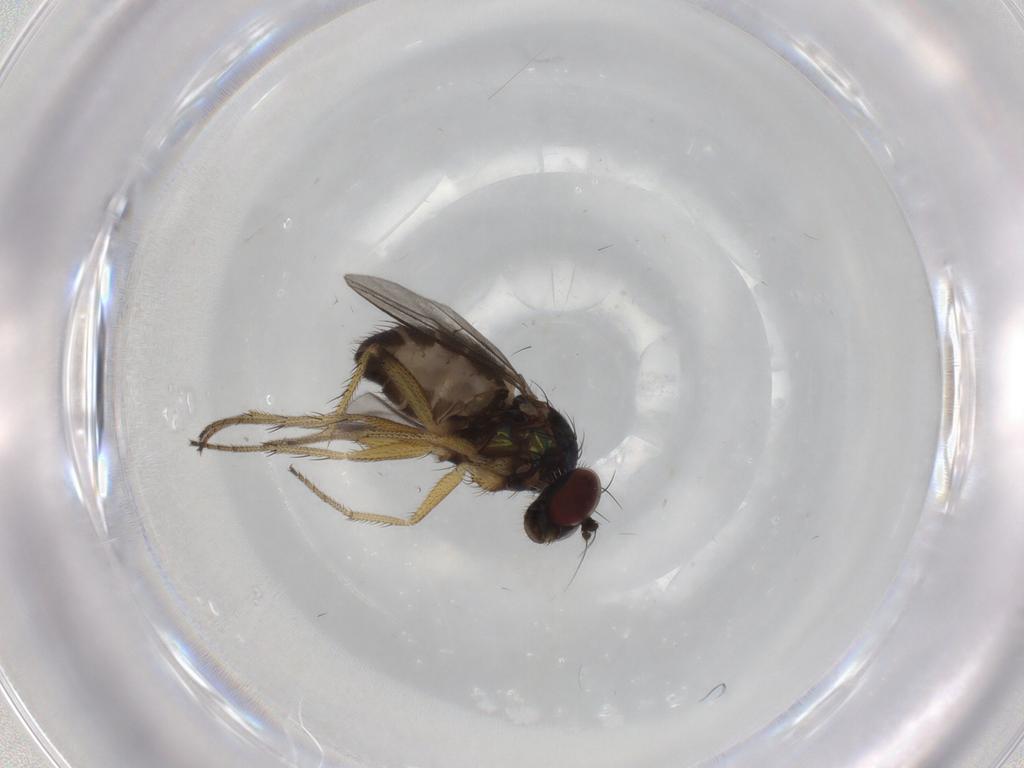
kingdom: Animalia
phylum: Arthropoda
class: Insecta
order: Diptera
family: Dolichopodidae
